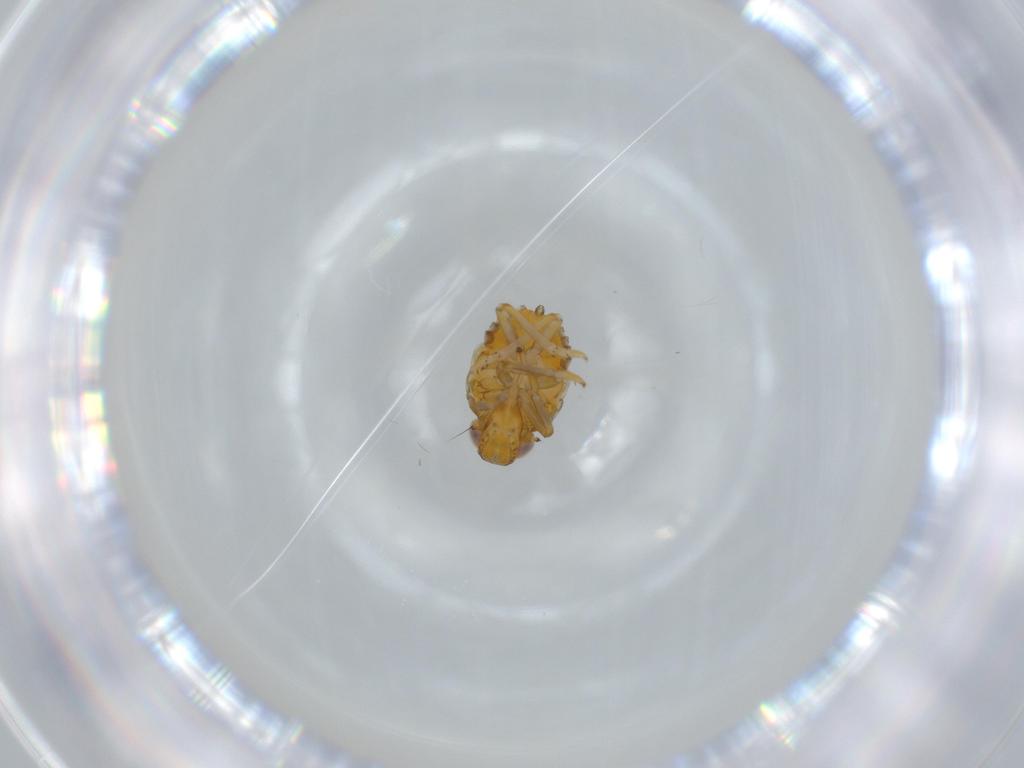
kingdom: Animalia
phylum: Arthropoda
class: Insecta
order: Hemiptera
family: Issidae
